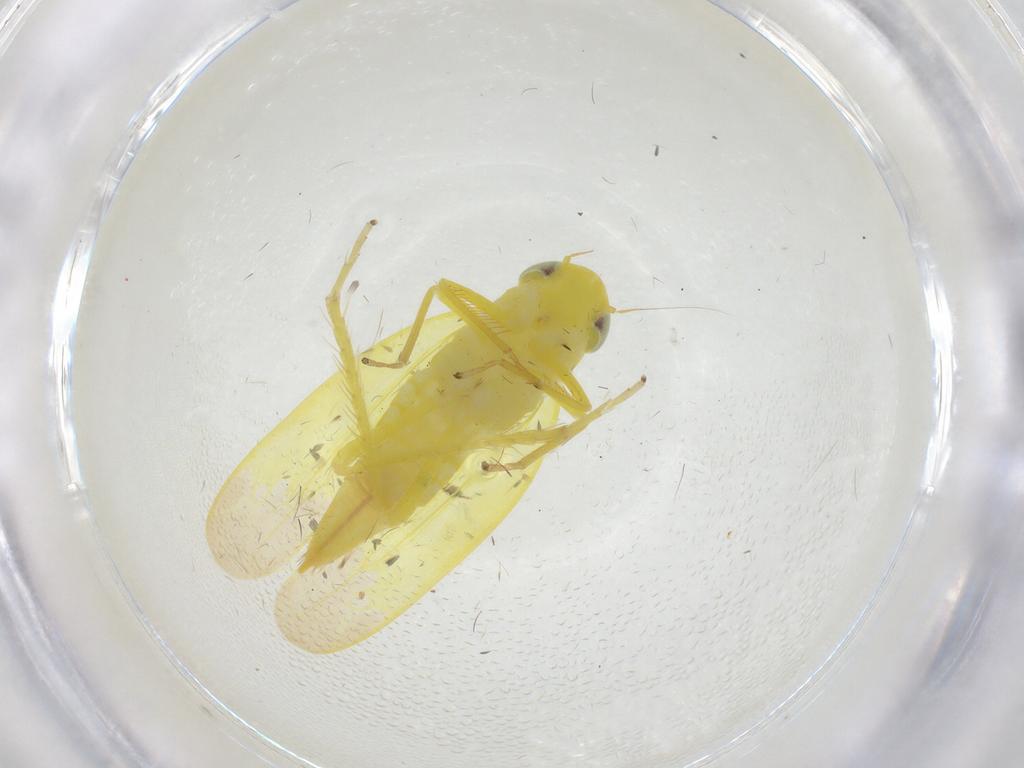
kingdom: Animalia
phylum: Arthropoda
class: Insecta
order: Hemiptera
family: Cicadellidae
